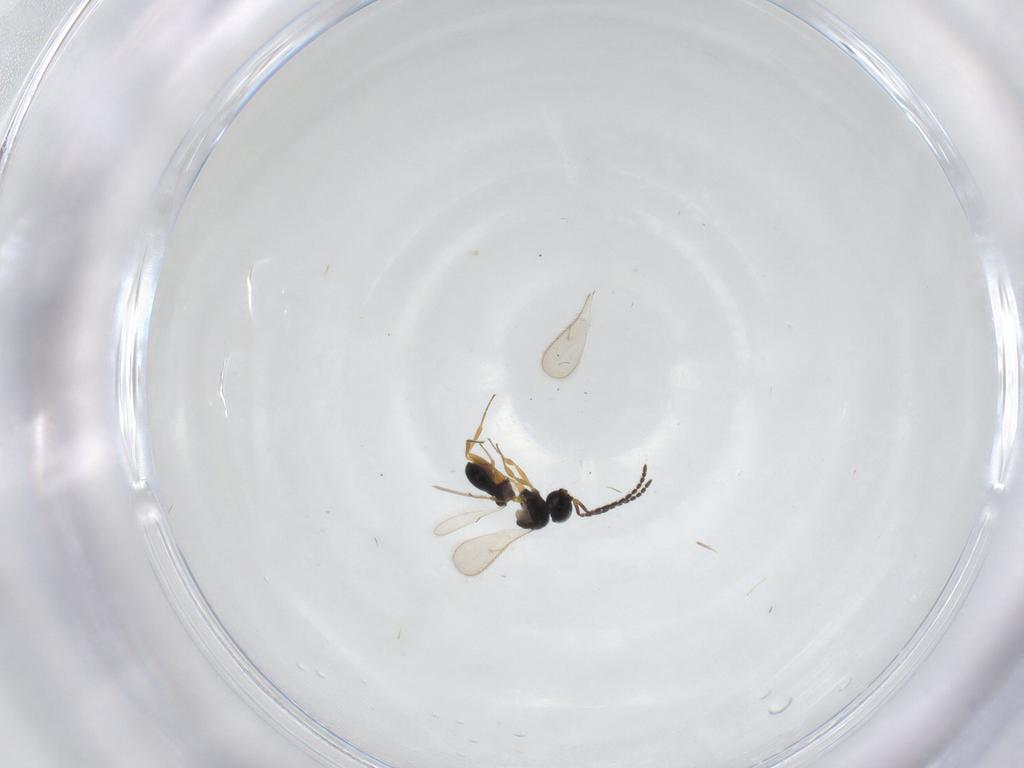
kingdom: Animalia
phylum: Arthropoda
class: Insecta
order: Hymenoptera
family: Scelionidae
